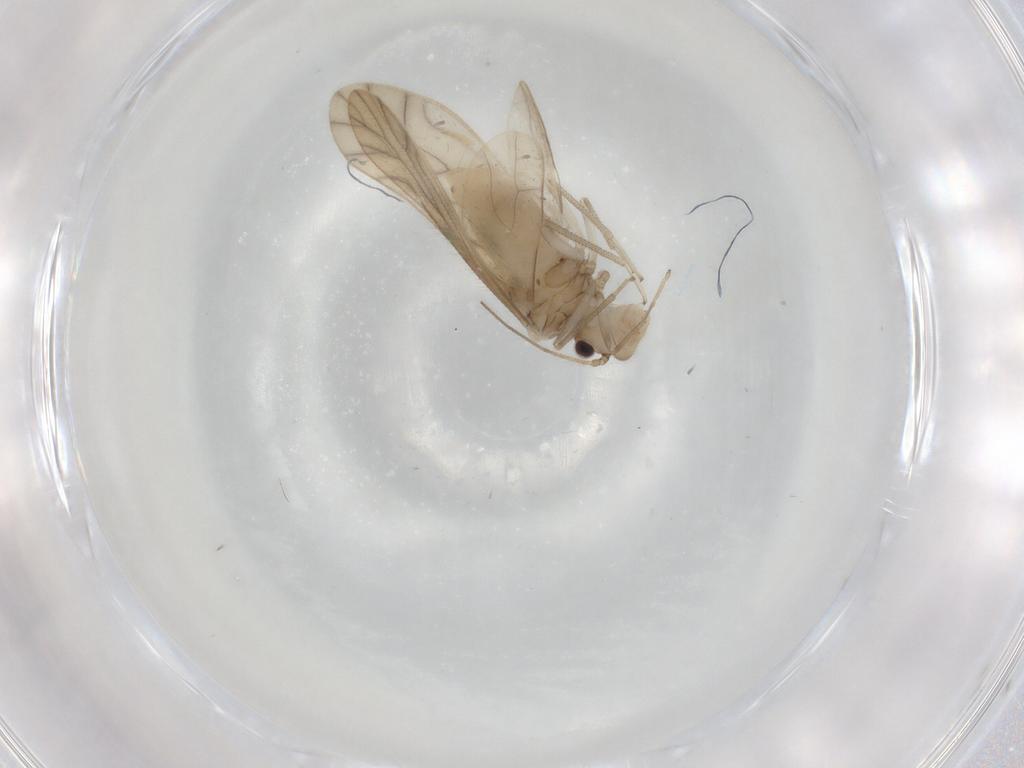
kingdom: Animalia
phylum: Arthropoda
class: Insecta
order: Psocodea
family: Caeciliusidae
